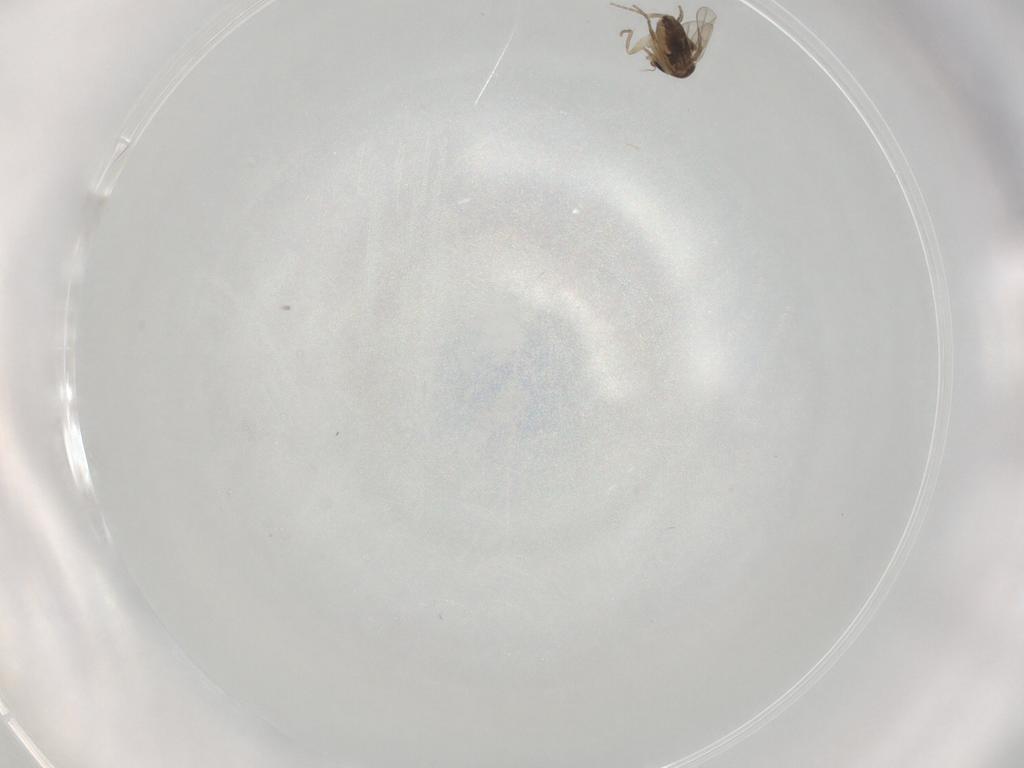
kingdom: Animalia
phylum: Arthropoda
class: Insecta
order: Diptera
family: Phoridae
